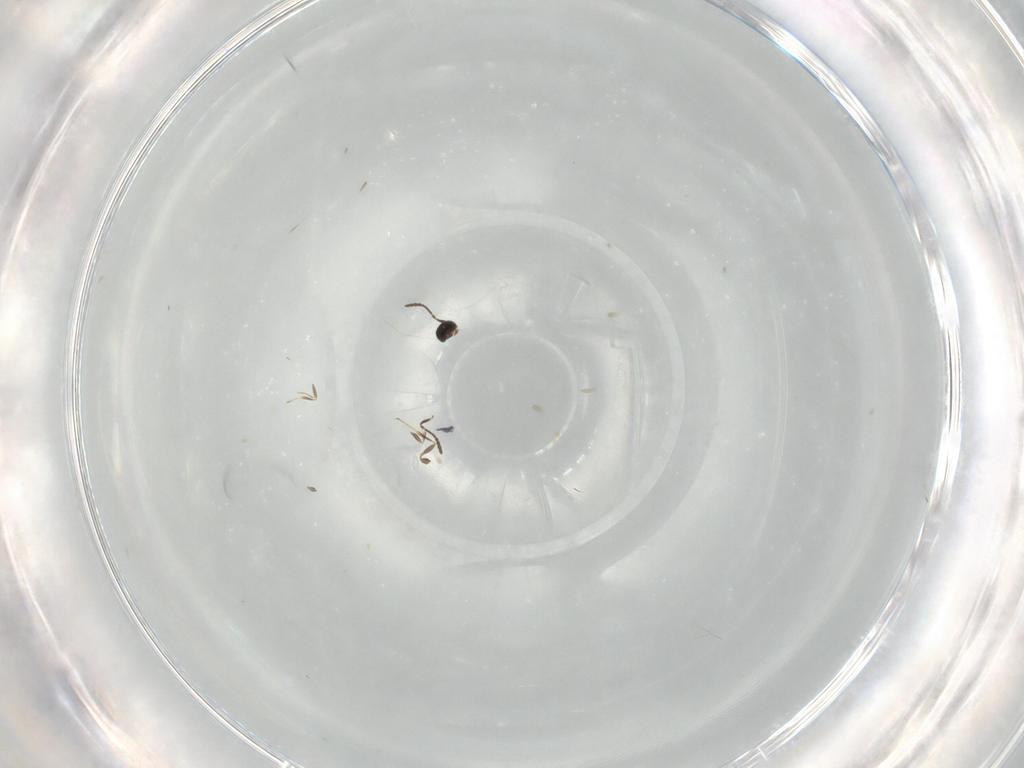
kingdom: Animalia
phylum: Arthropoda
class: Insecta
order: Hymenoptera
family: Scelionidae
